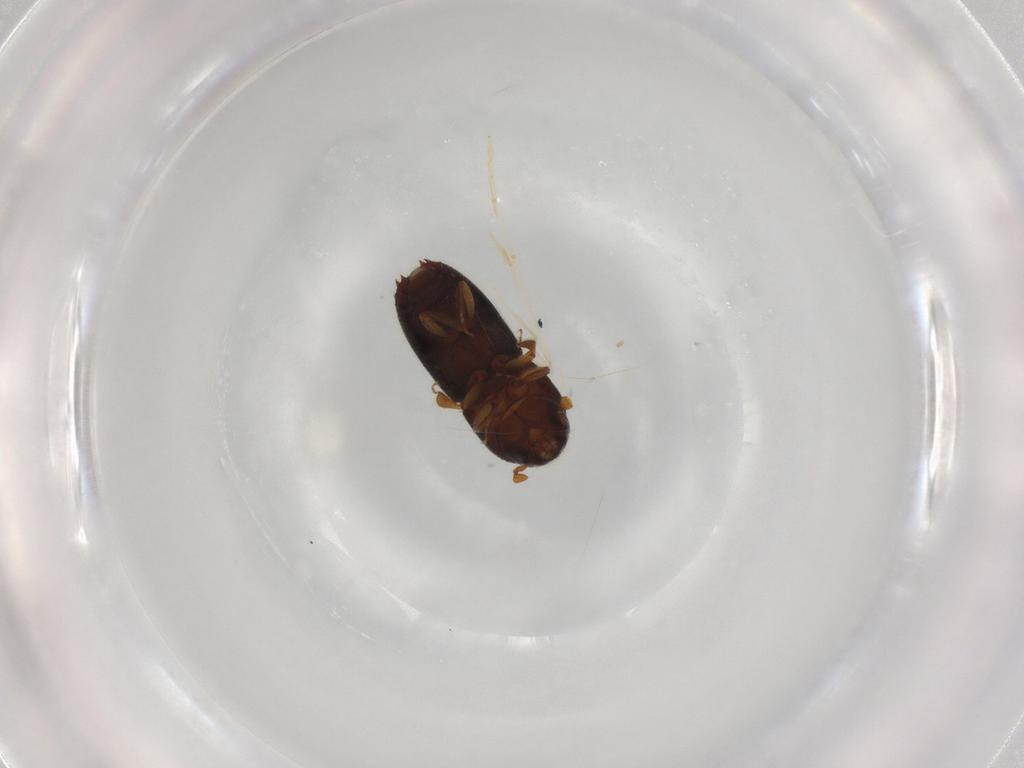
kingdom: Animalia
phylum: Arthropoda
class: Insecta
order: Coleoptera
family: Curculionidae
